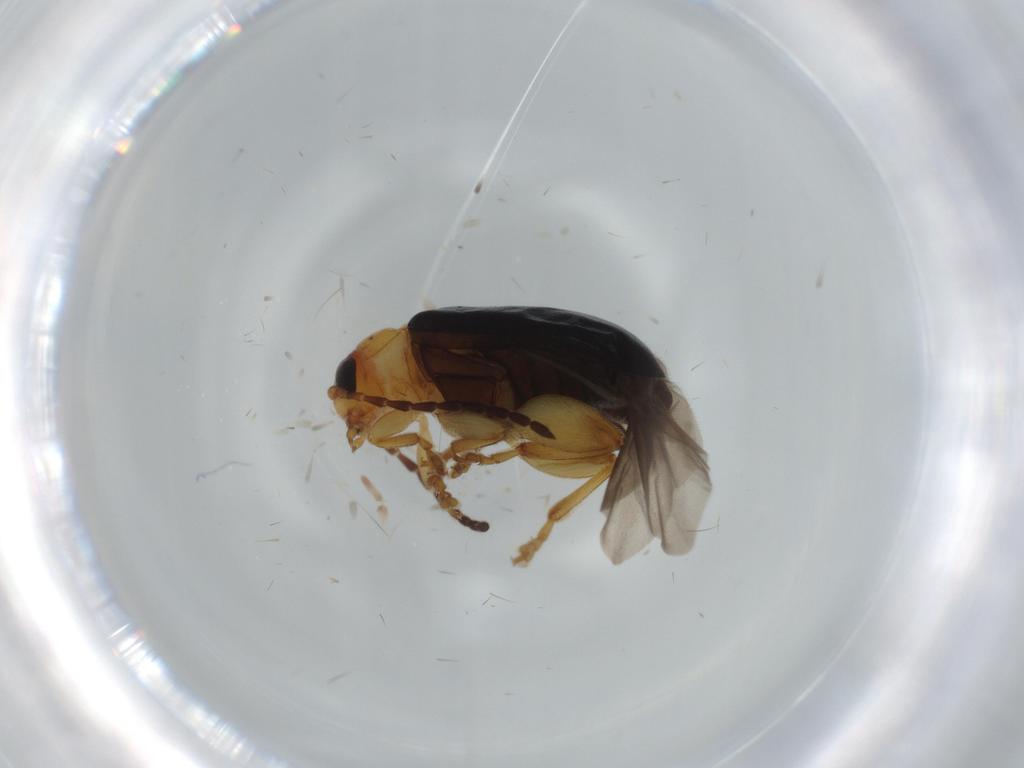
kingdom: Animalia
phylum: Arthropoda
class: Insecta
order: Coleoptera
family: Chrysomelidae
